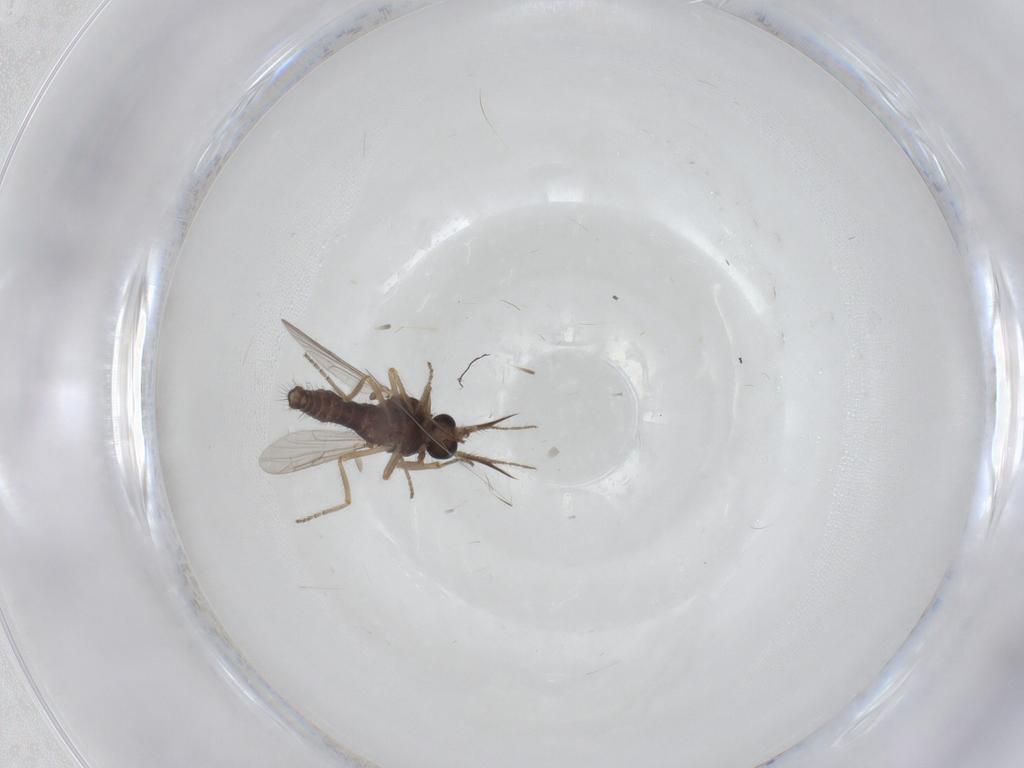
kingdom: Animalia
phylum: Arthropoda
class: Insecta
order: Diptera
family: Ceratopogonidae
